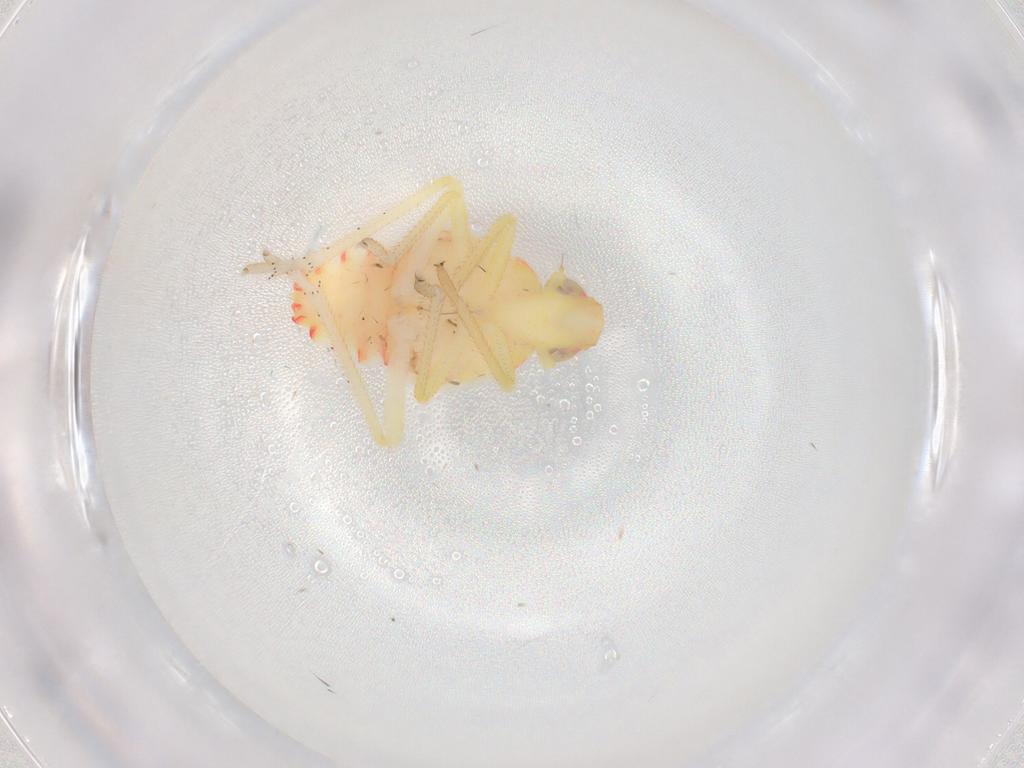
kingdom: Animalia
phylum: Arthropoda
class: Insecta
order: Hemiptera
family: Tropiduchidae
